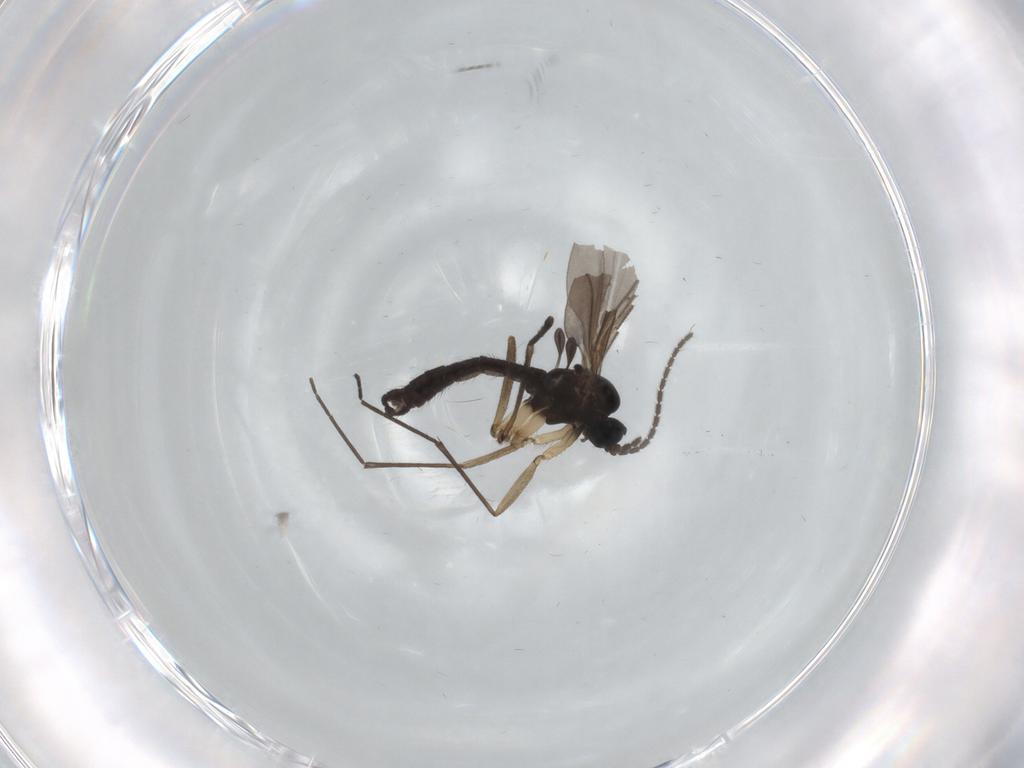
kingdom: Animalia
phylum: Arthropoda
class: Insecta
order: Diptera
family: Sciaridae
